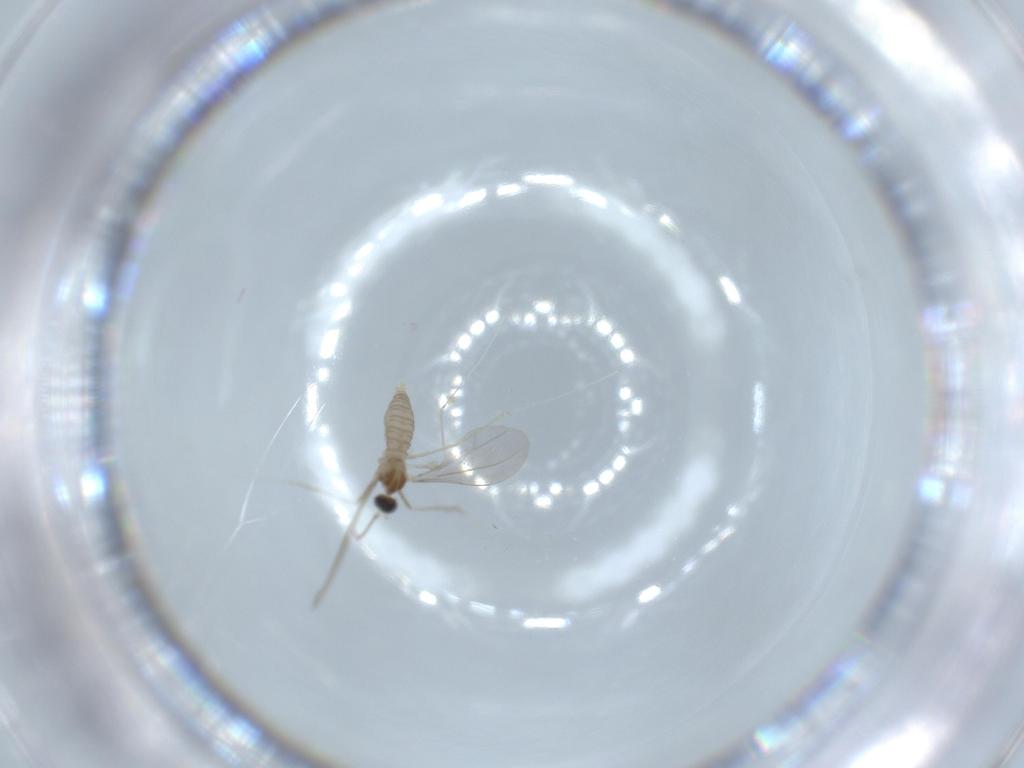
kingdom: Animalia
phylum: Arthropoda
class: Insecta
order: Diptera
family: Cecidomyiidae
